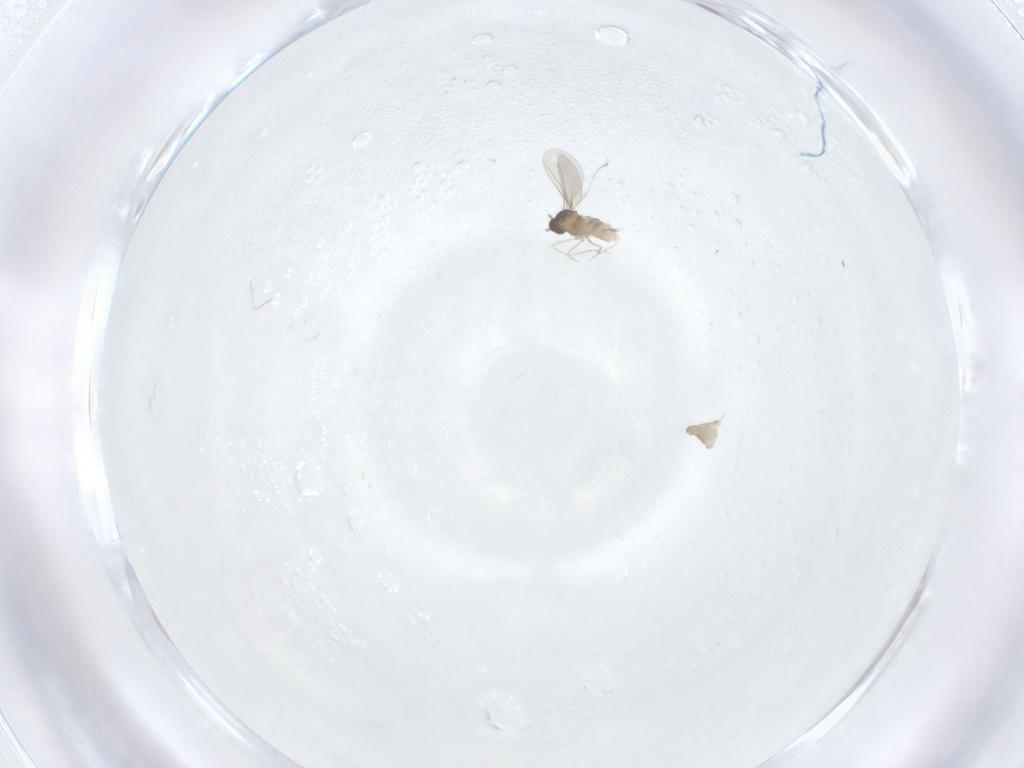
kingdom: Animalia
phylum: Arthropoda
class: Insecta
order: Diptera
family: Cecidomyiidae
